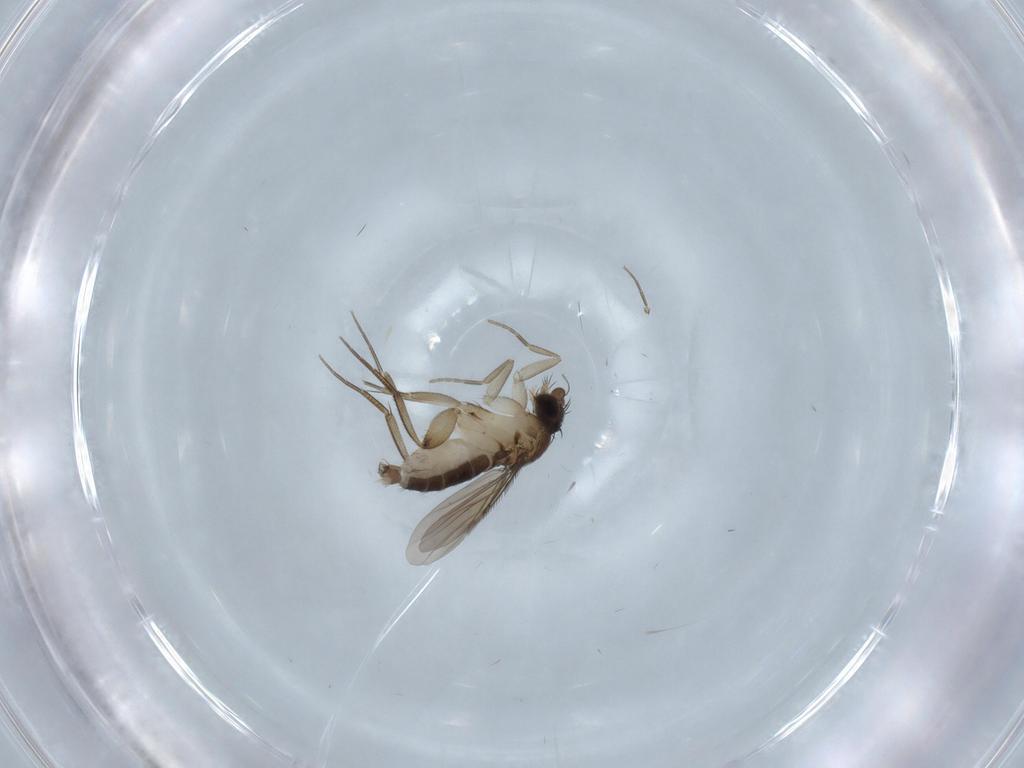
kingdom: Animalia
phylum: Arthropoda
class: Insecta
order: Diptera
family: Phoridae
